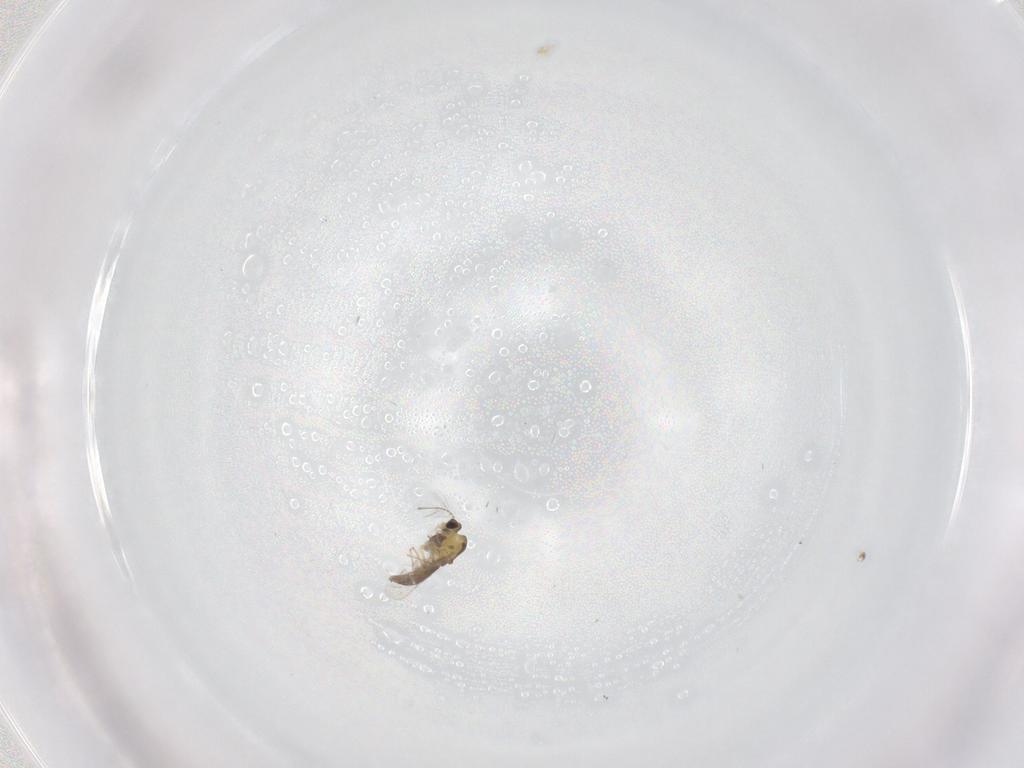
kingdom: Animalia
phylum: Arthropoda
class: Insecta
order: Diptera
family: Chironomidae
